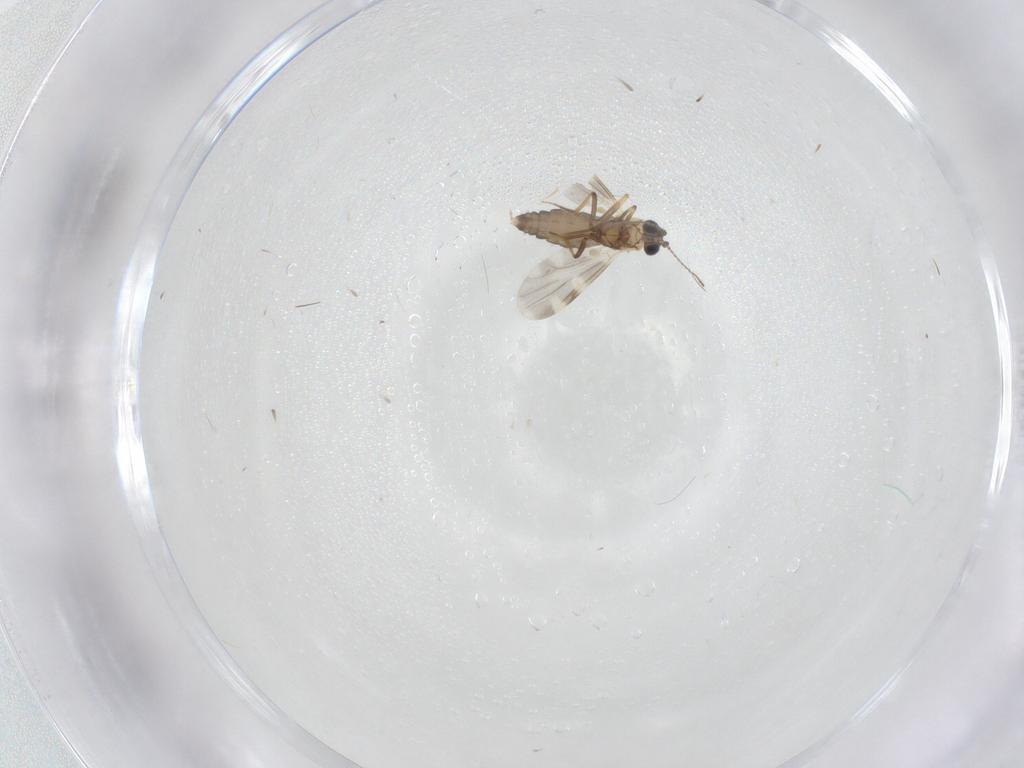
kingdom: Animalia
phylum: Arthropoda
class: Insecta
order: Diptera
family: Ceratopogonidae
